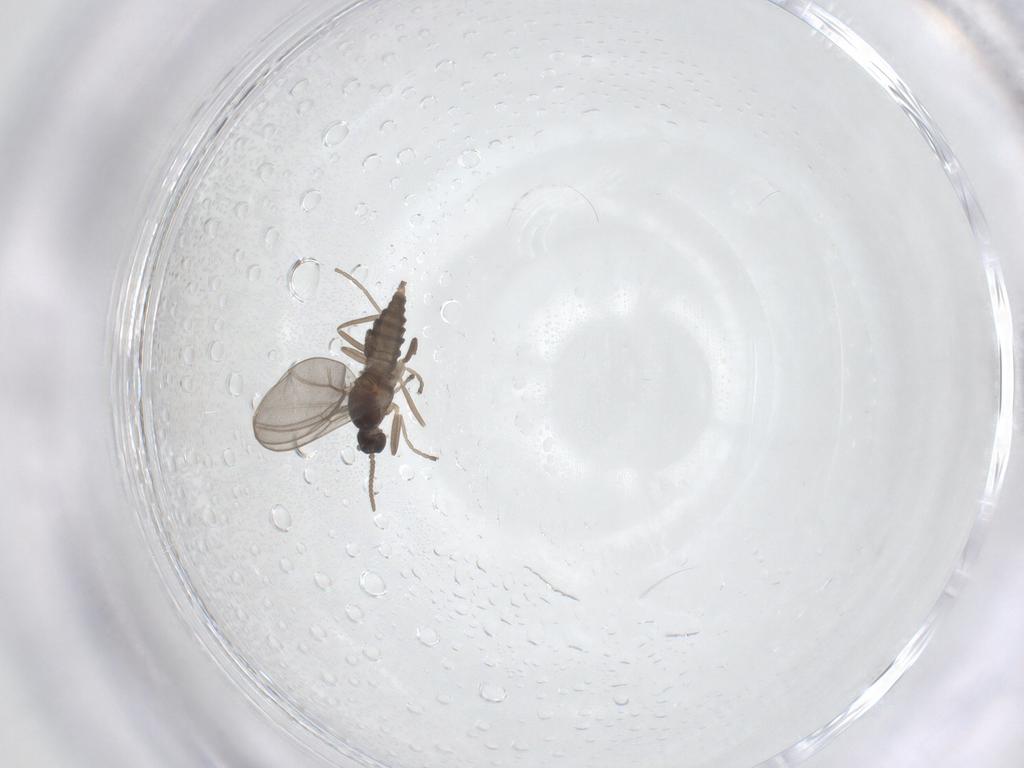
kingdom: Animalia
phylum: Arthropoda
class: Insecta
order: Diptera
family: Cecidomyiidae
